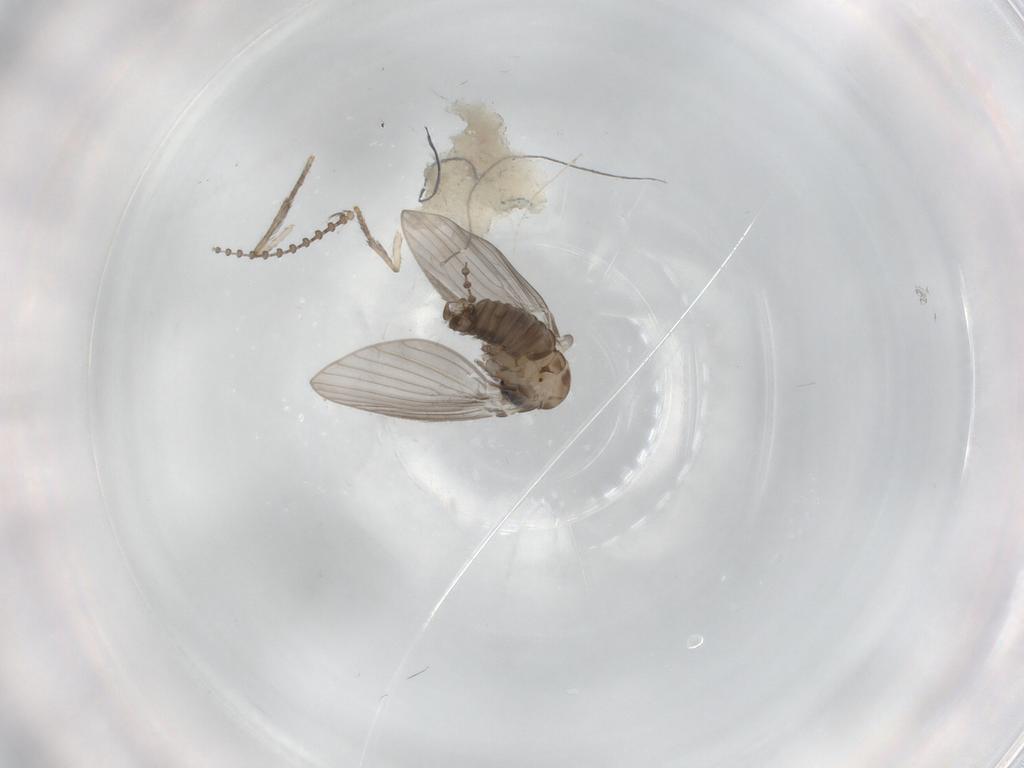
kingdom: Animalia
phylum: Arthropoda
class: Insecta
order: Diptera
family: Psychodidae
